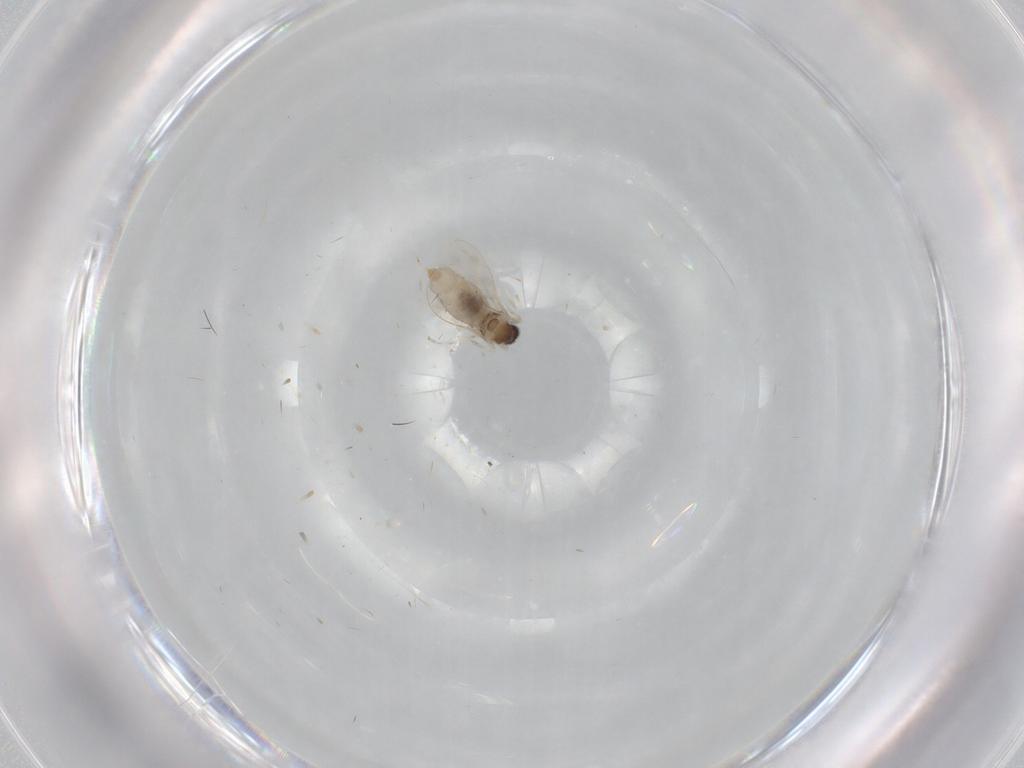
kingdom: Animalia
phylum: Arthropoda
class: Insecta
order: Diptera
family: Cecidomyiidae
